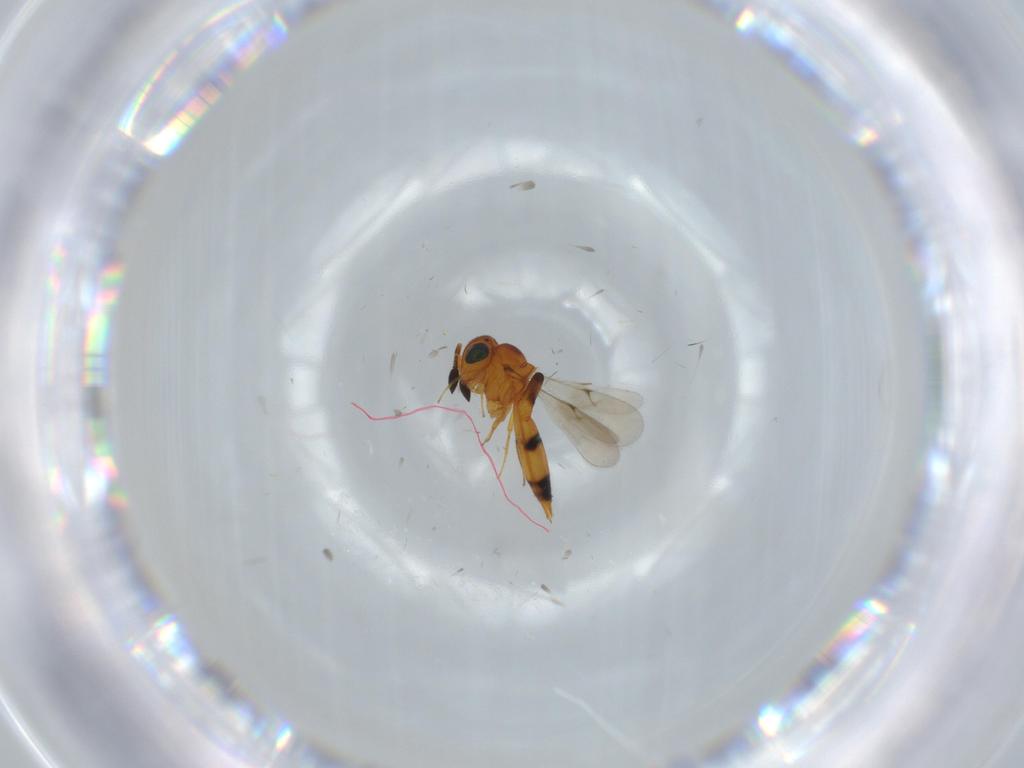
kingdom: Animalia
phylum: Arthropoda
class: Insecta
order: Hymenoptera
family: Scelionidae
